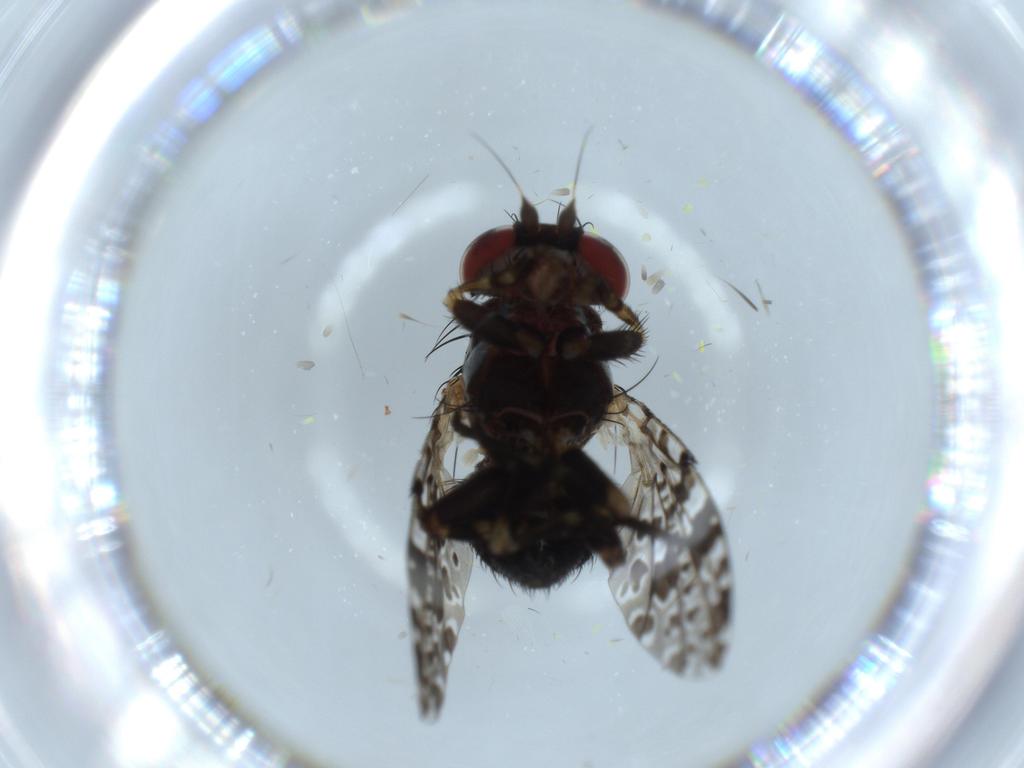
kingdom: Animalia
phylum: Arthropoda
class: Insecta
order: Diptera
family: Odiniidae
